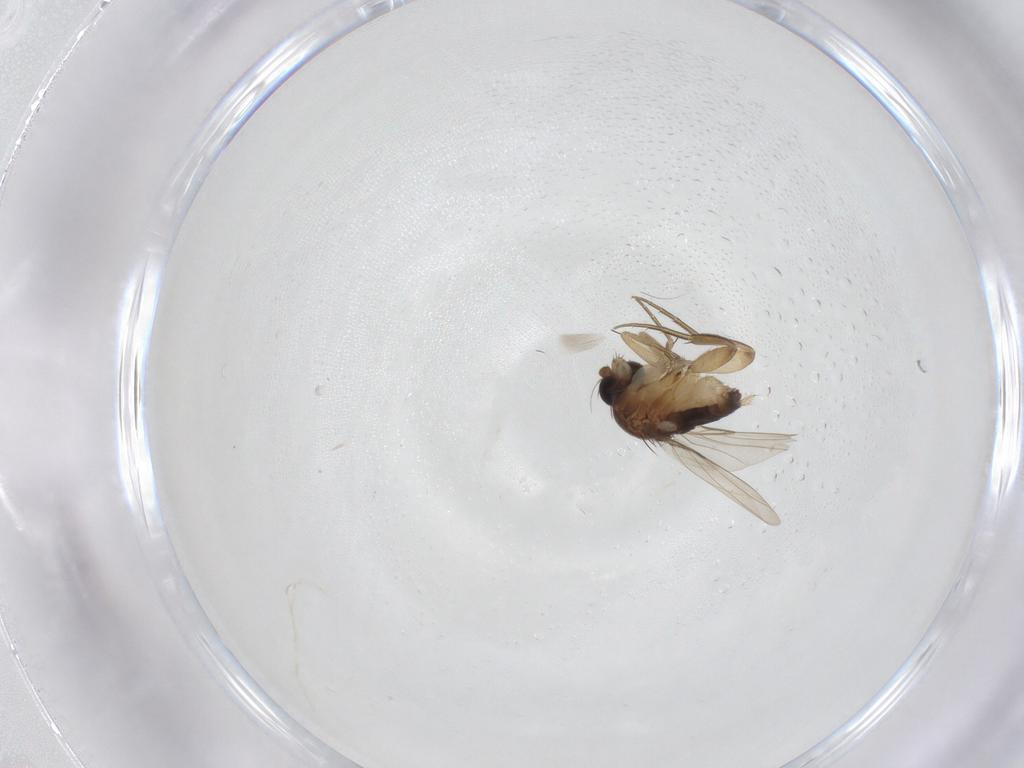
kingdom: Animalia
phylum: Arthropoda
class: Insecta
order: Diptera
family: Phoridae
